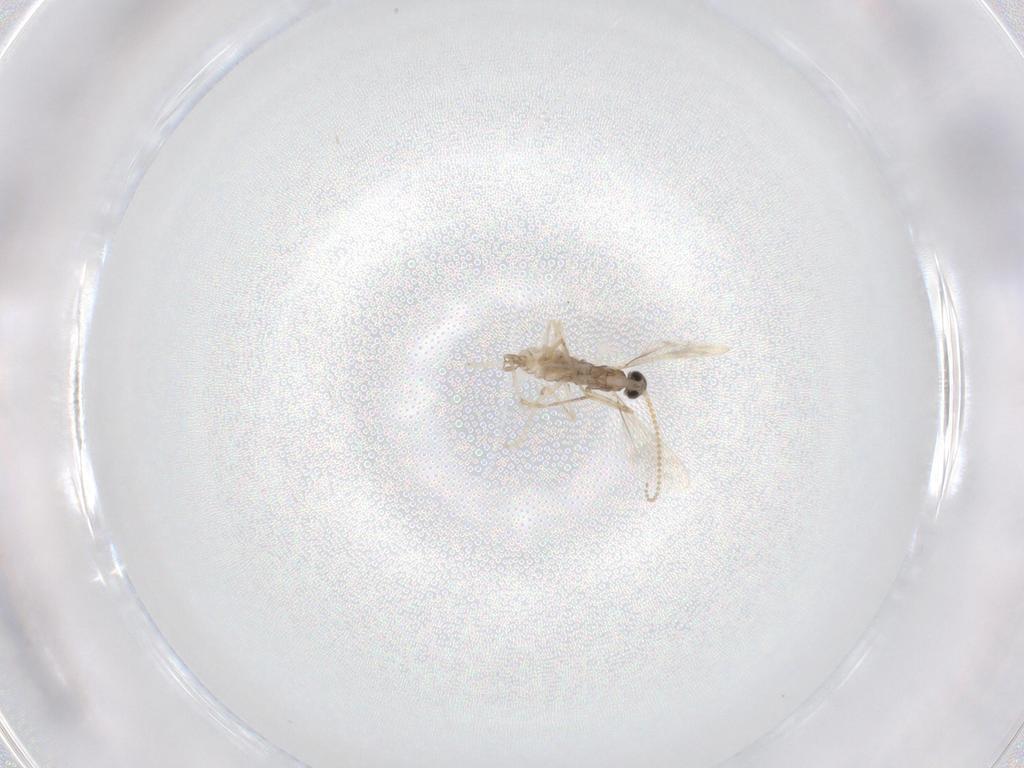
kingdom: Animalia
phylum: Arthropoda
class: Insecta
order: Diptera
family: Cecidomyiidae
